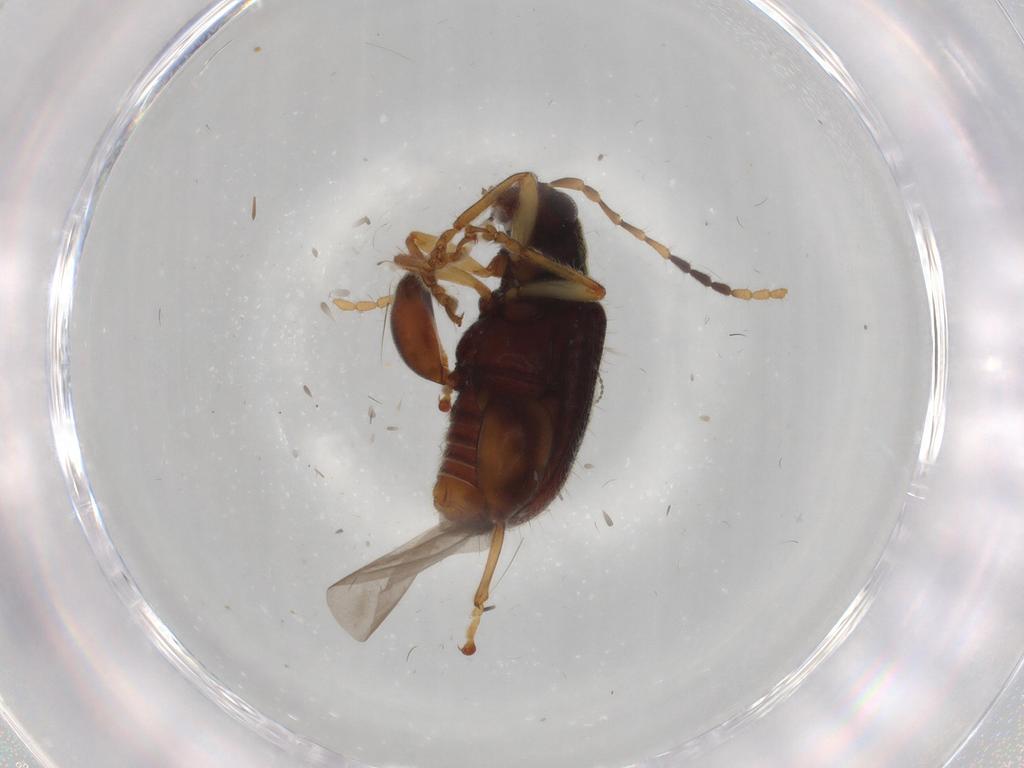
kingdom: Animalia
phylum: Arthropoda
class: Insecta
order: Coleoptera
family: Chrysomelidae
